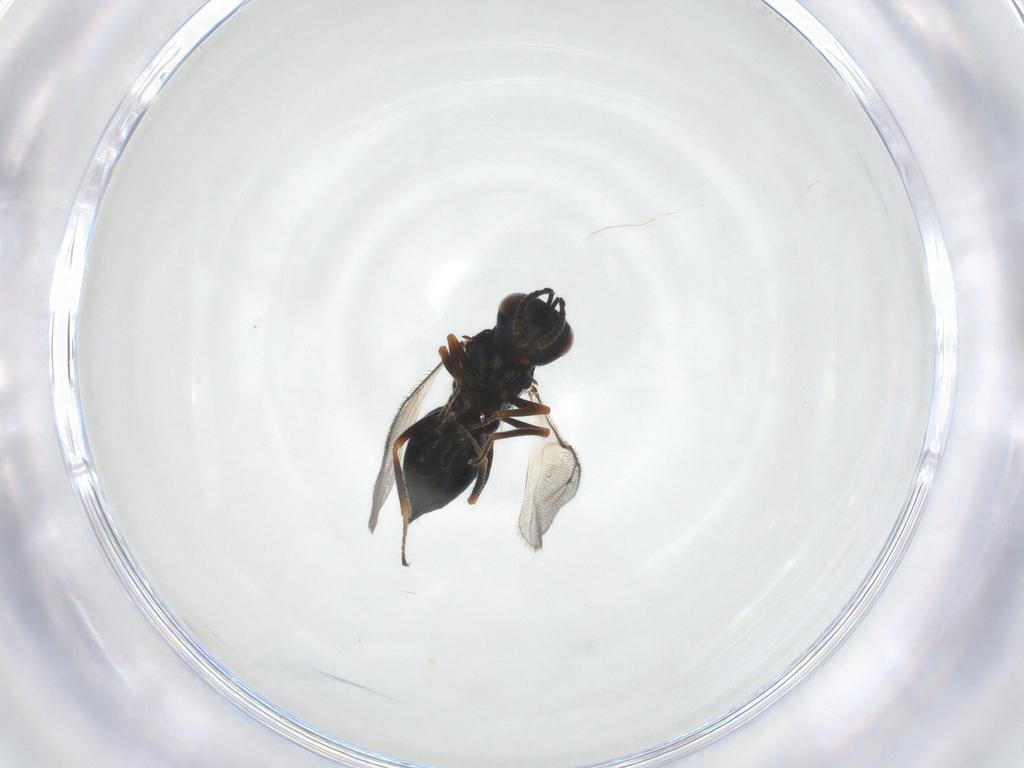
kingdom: Animalia
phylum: Arthropoda
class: Insecta
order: Hymenoptera
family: Pteromalidae
